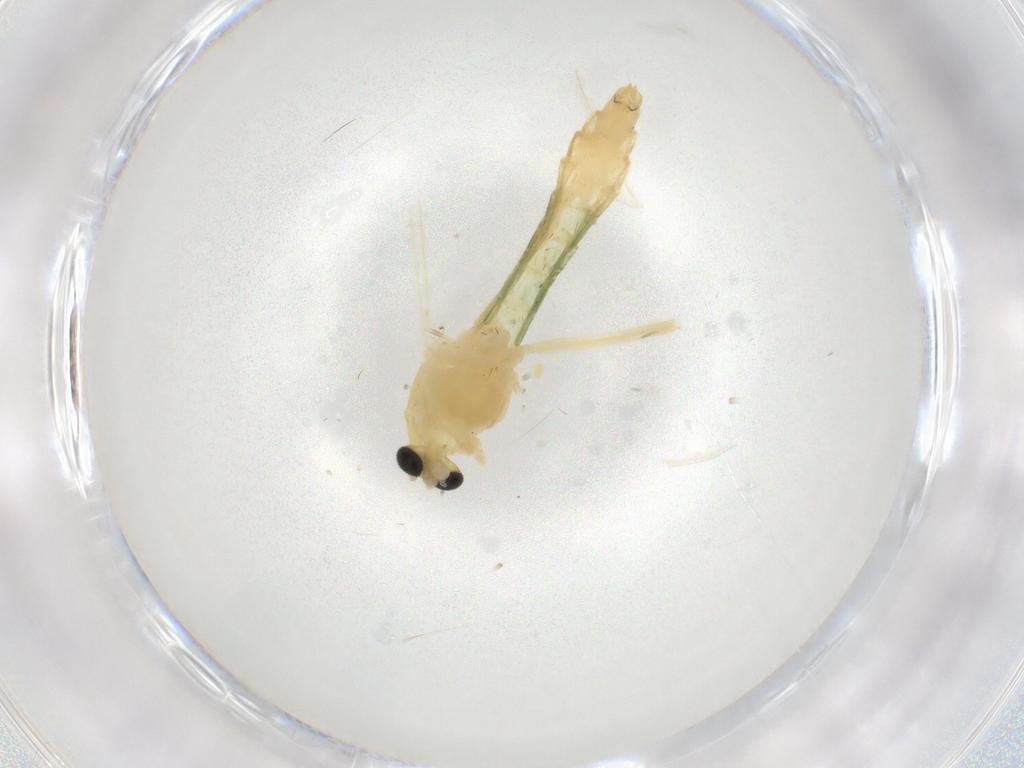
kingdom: Animalia
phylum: Arthropoda
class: Insecta
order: Diptera
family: Chironomidae
